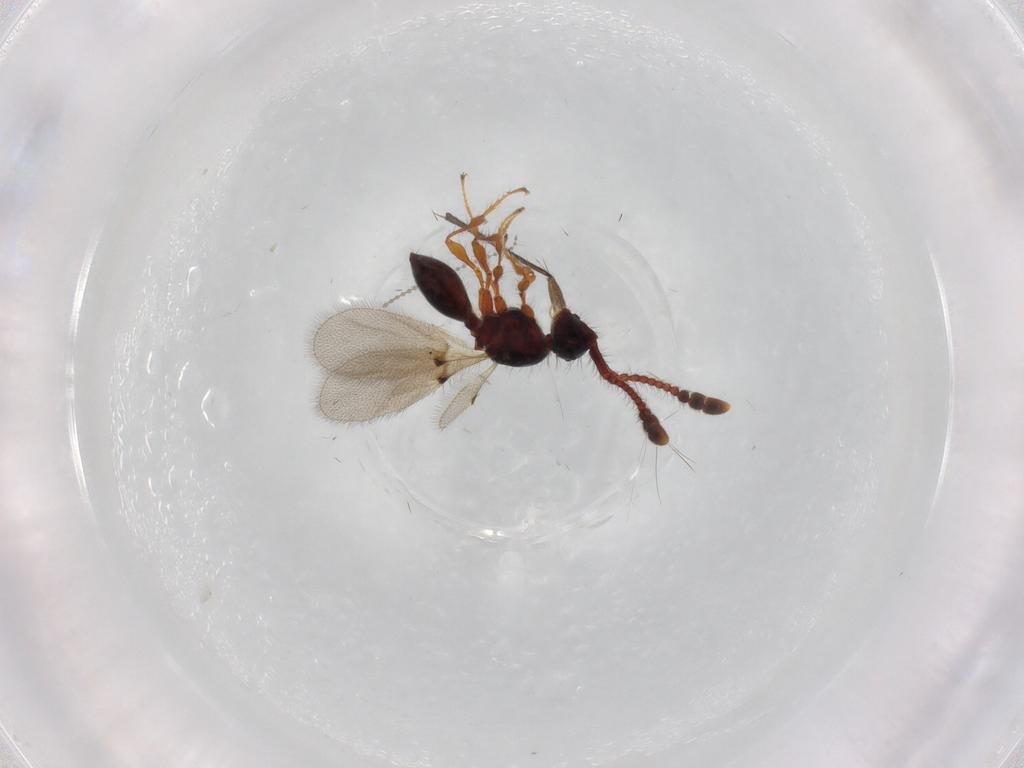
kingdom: Animalia
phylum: Arthropoda
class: Insecta
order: Hymenoptera
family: Diapriidae
